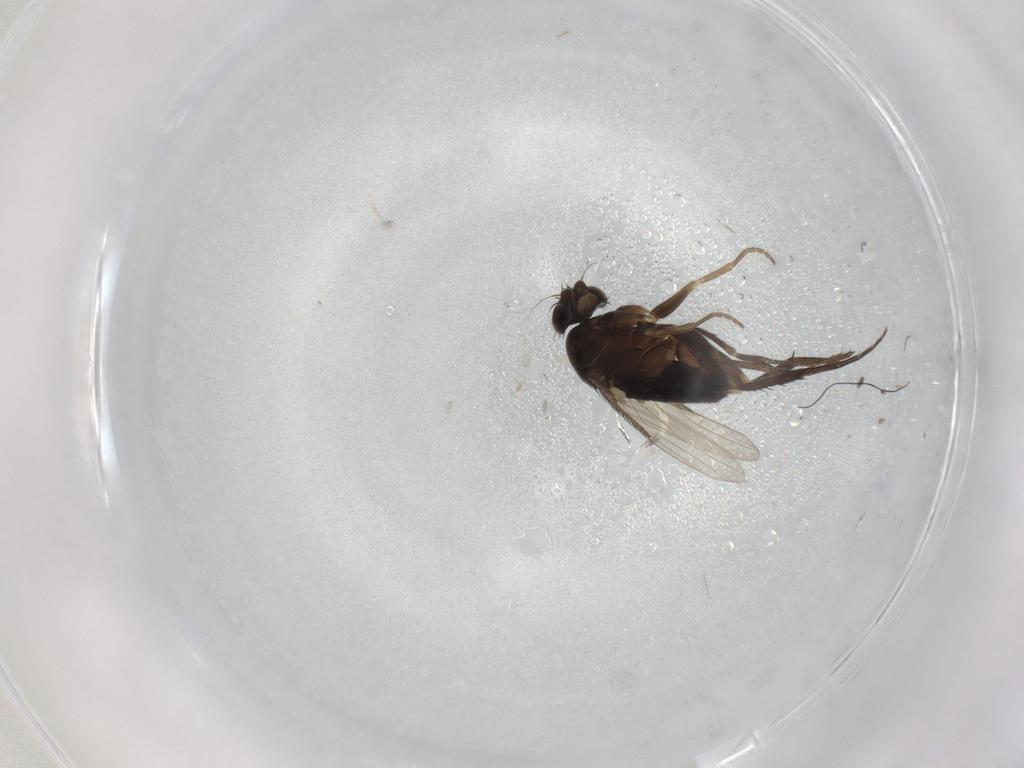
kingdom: Animalia
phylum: Arthropoda
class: Insecta
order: Diptera
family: Phoridae
